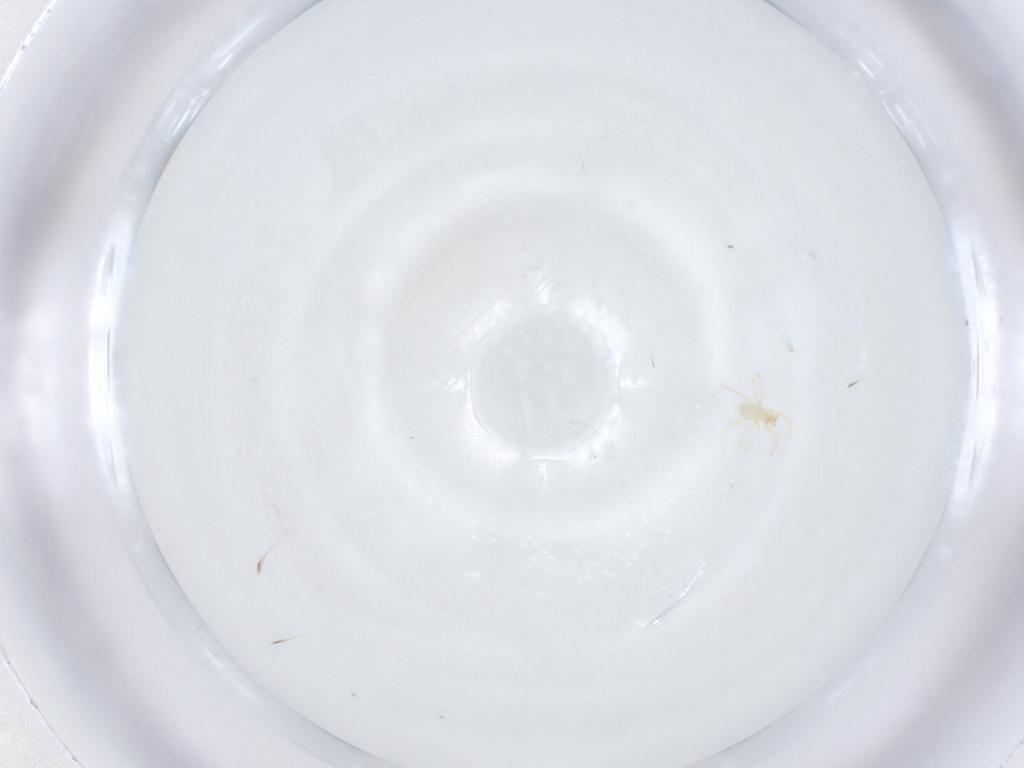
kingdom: Animalia
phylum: Arthropoda
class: Arachnida
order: Trombidiformes
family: Erythraeidae
